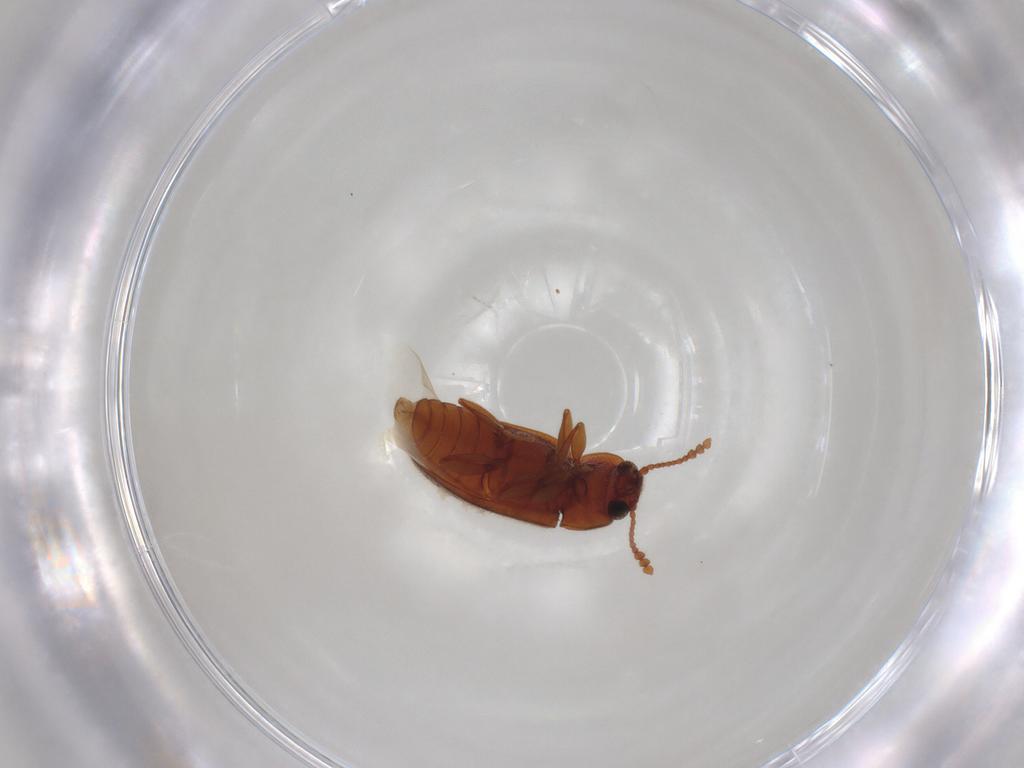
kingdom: Animalia
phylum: Arthropoda
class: Insecta
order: Coleoptera
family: Erotylidae
